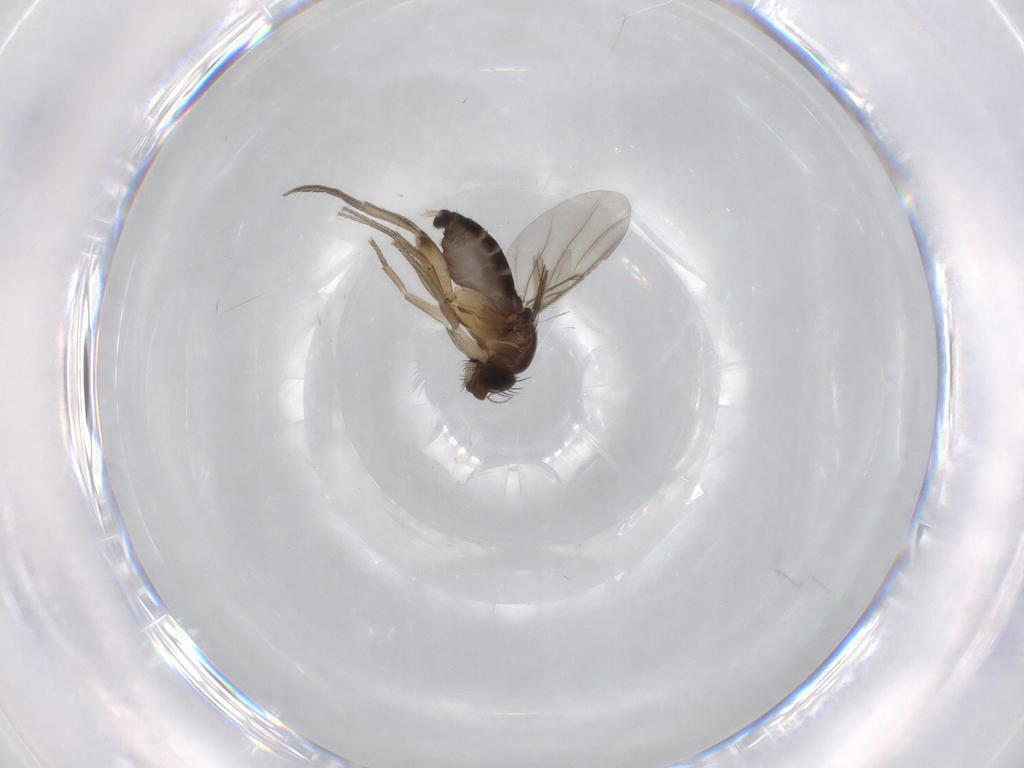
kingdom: Animalia
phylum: Arthropoda
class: Insecta
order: Diptera
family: Phoridae
